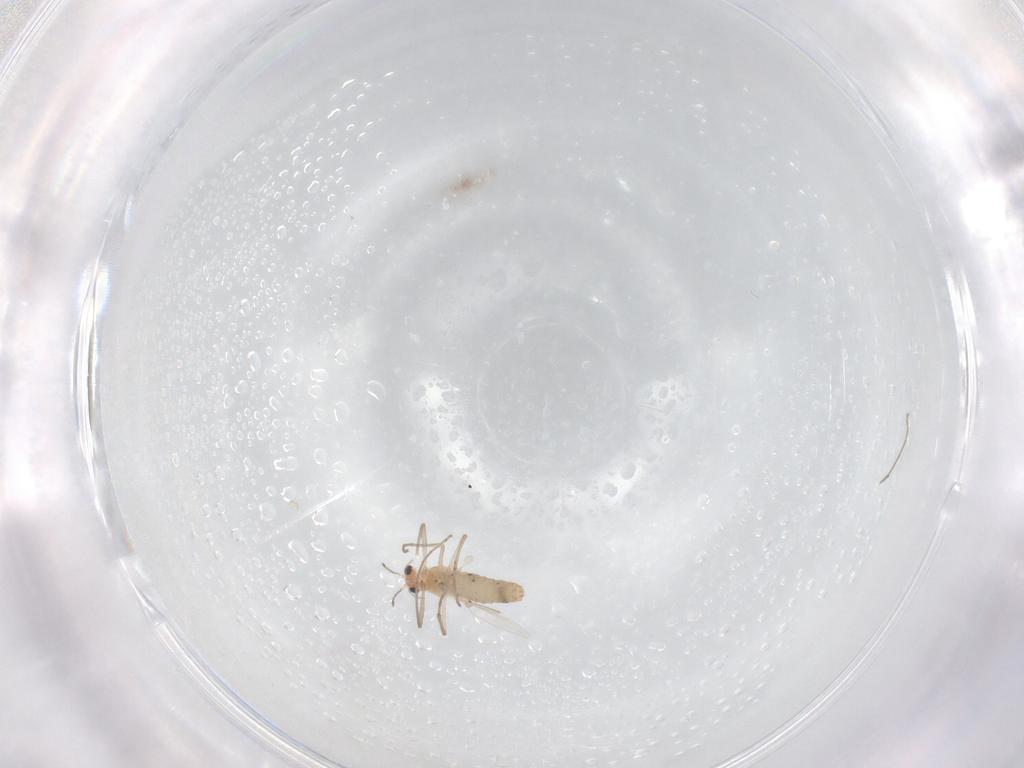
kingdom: Animalia
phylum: Arthropoda
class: Insecta
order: Diptera
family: Chironomidae
